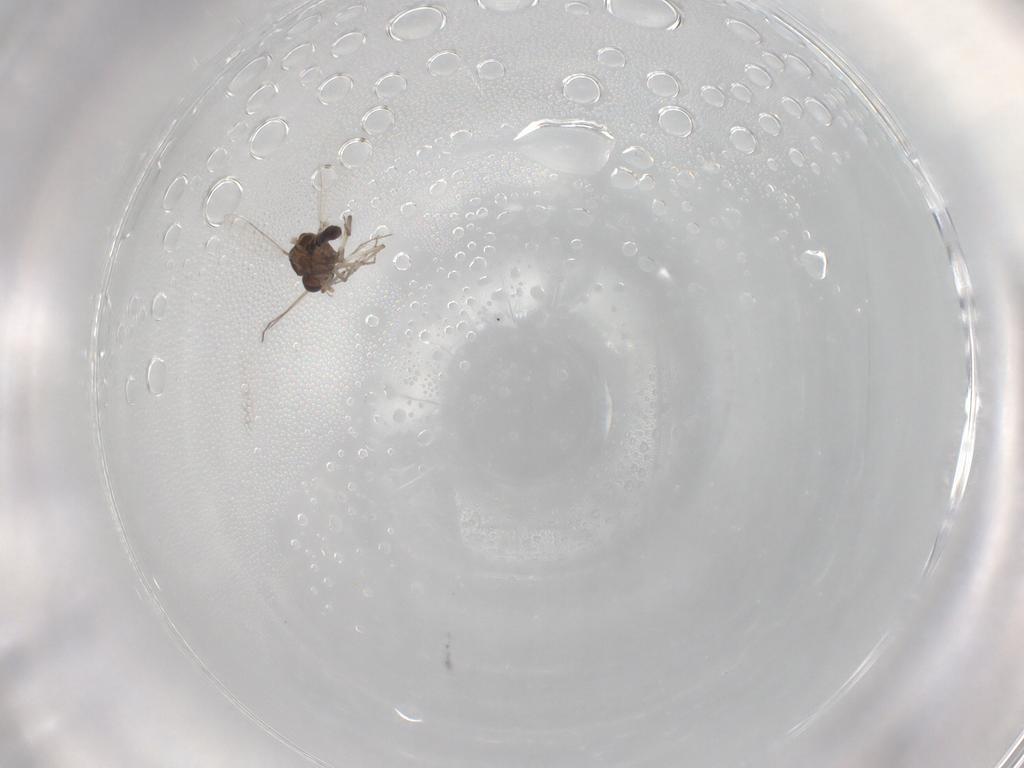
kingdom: Animalia
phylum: Arthropoda
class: Insecta
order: Diptera
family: Ceratopogonidae
